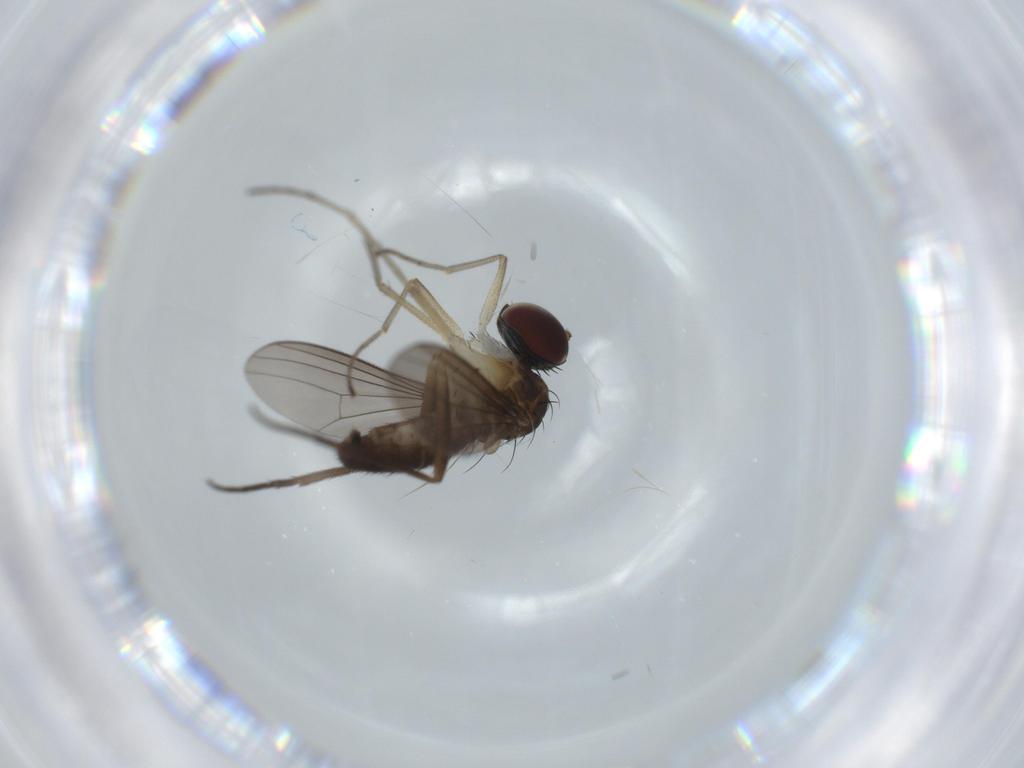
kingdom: Animalia
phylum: Arthropoda
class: Insecta
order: Diptera
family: Dolichopodidae
